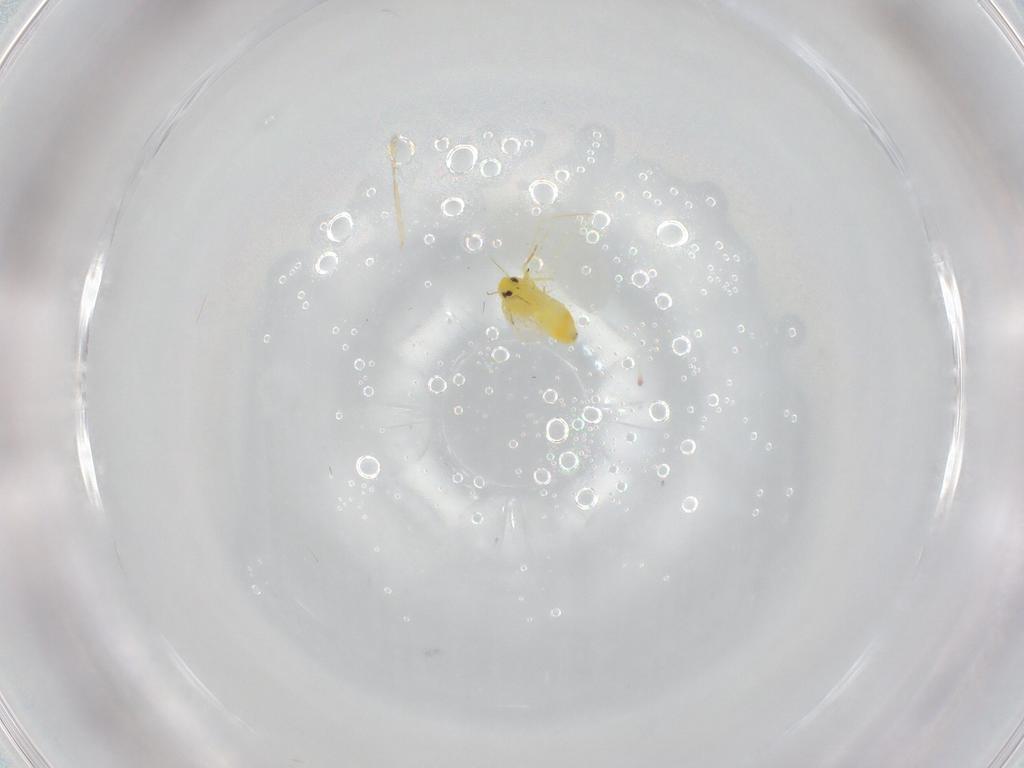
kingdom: Animalia
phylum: Arthropoda
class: Insecta
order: Hemiptera
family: Aleyrodidae
